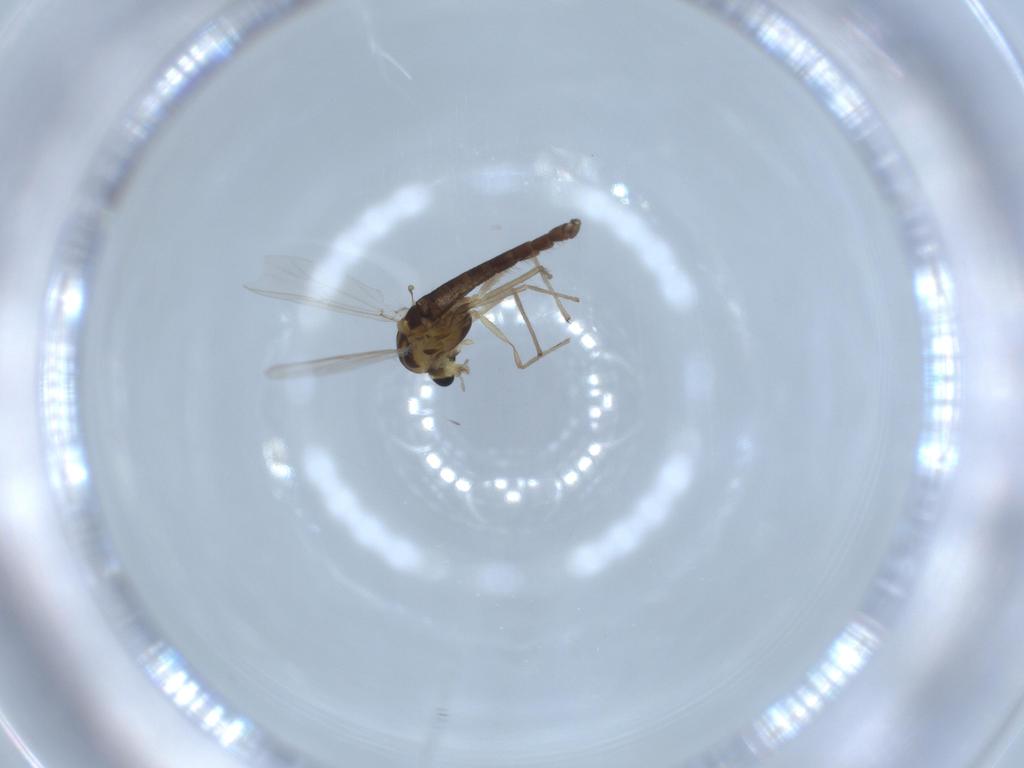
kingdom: Animalia
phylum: Arthropoda
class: Insecta
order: Diptera
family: Chironomidae
